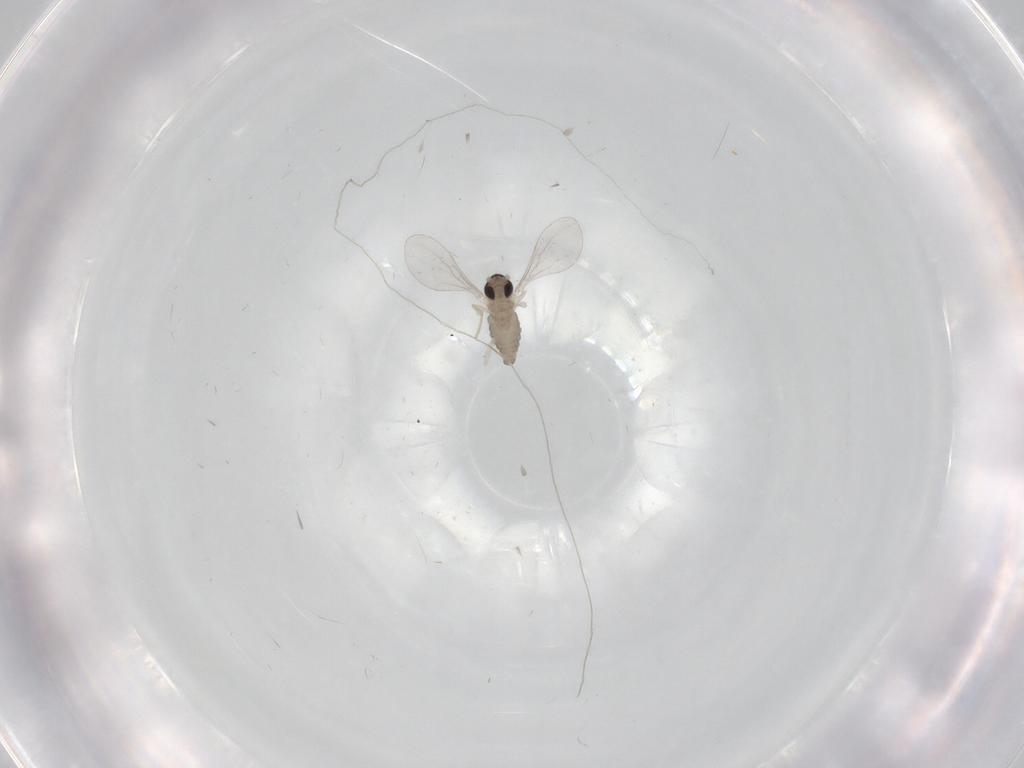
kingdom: Animalia
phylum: Arthropoda
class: Insecta
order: Diptera
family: Cecidomyiidae
